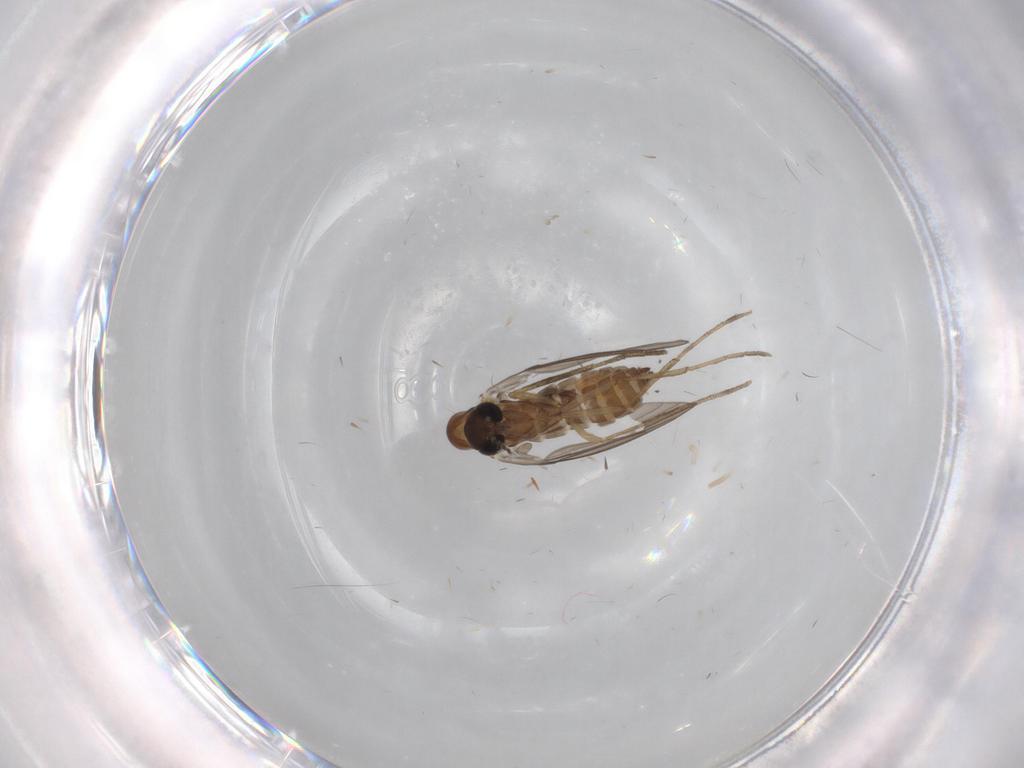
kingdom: Animalia
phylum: Arthropoda
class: Insecta
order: Diptera
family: Psychodidae
